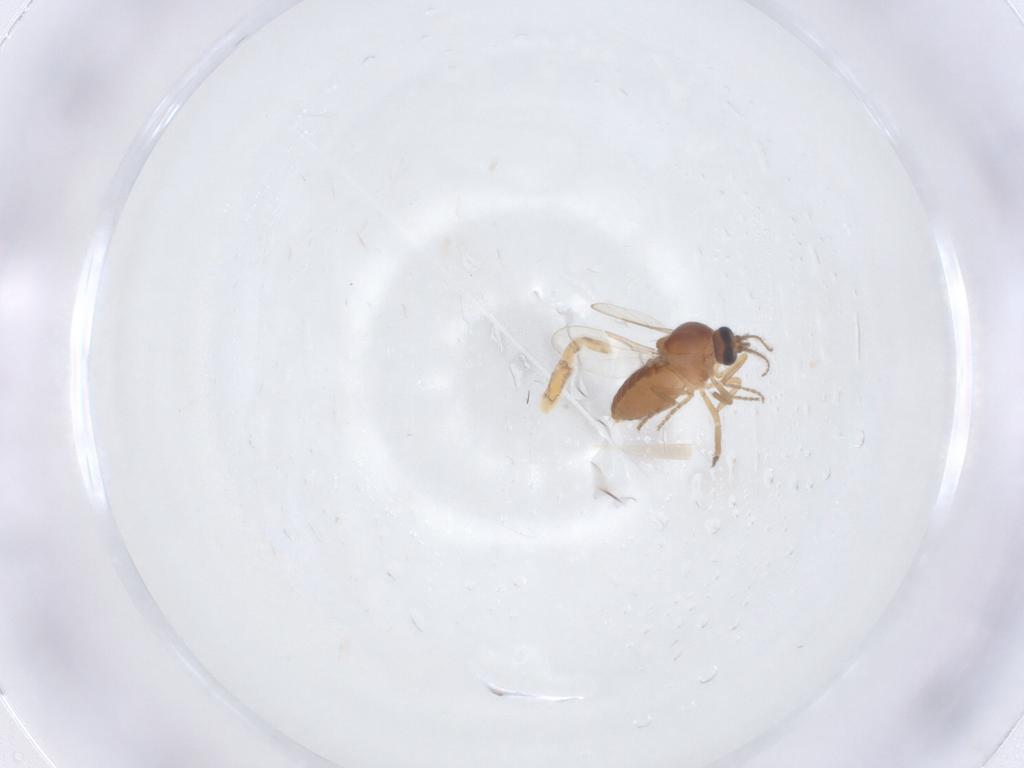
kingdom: Animalia
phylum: Arthropoda
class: Insecta
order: Diptera
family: Ceratopogonidae
